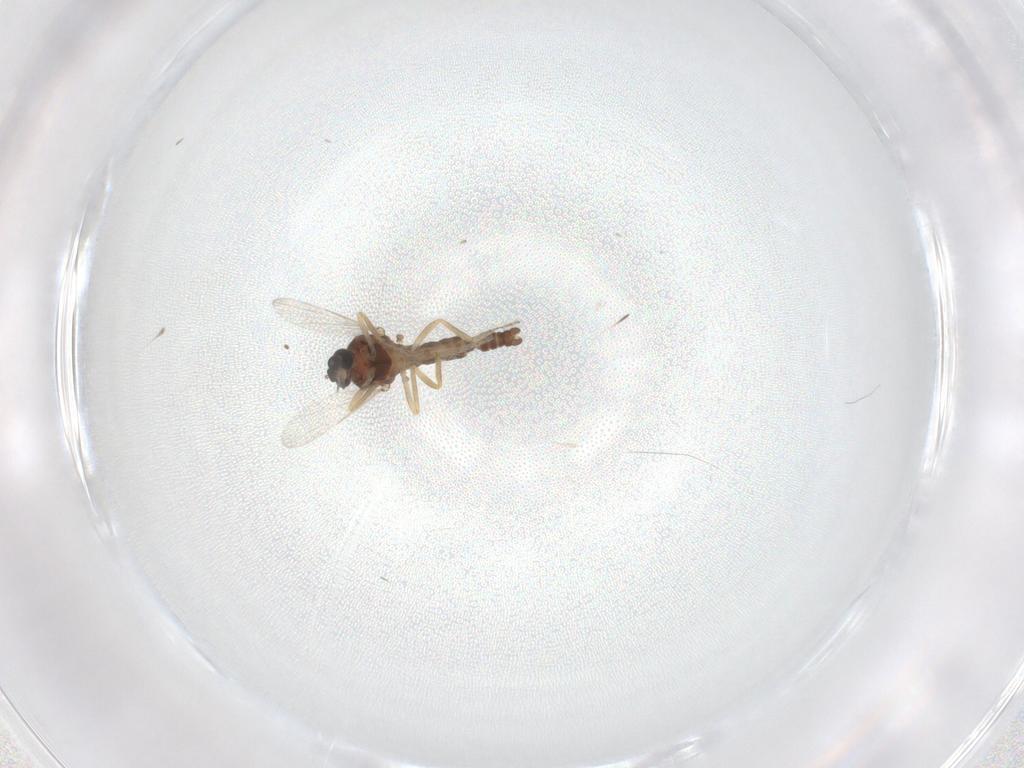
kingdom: Animalia
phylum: Arthropoda
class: Insecta
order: Diptera
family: Ceratopogonidae
